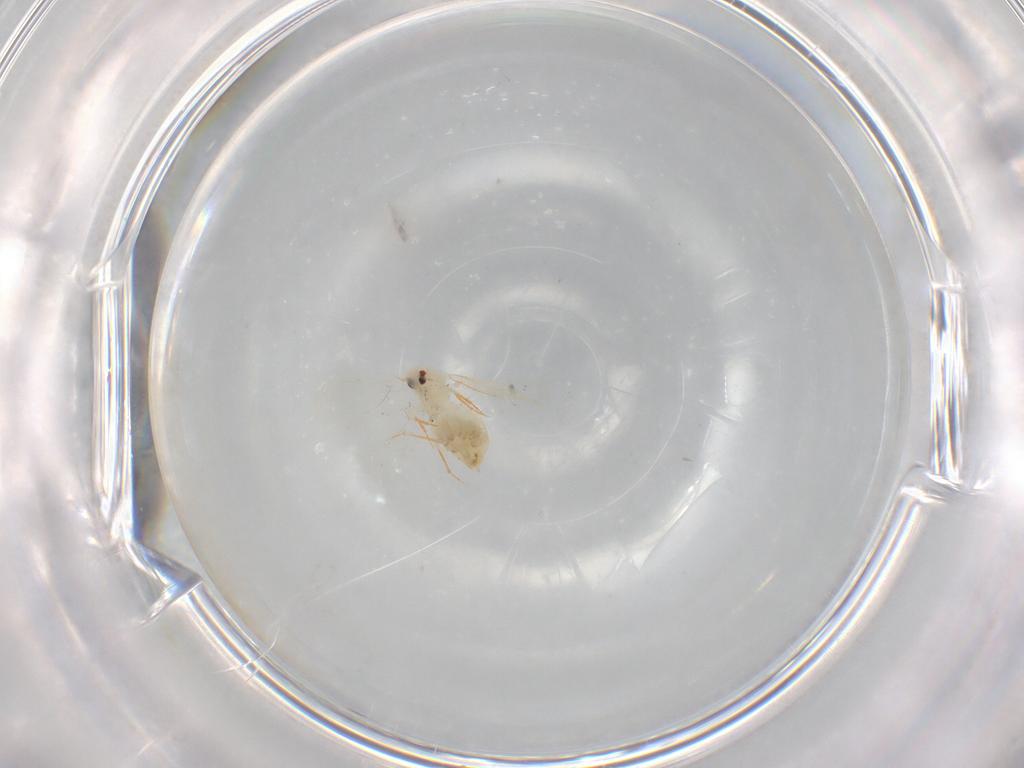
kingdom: Animalia
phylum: Arthropoda
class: Insecta
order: Hemiptera
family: Aleyrodidae
